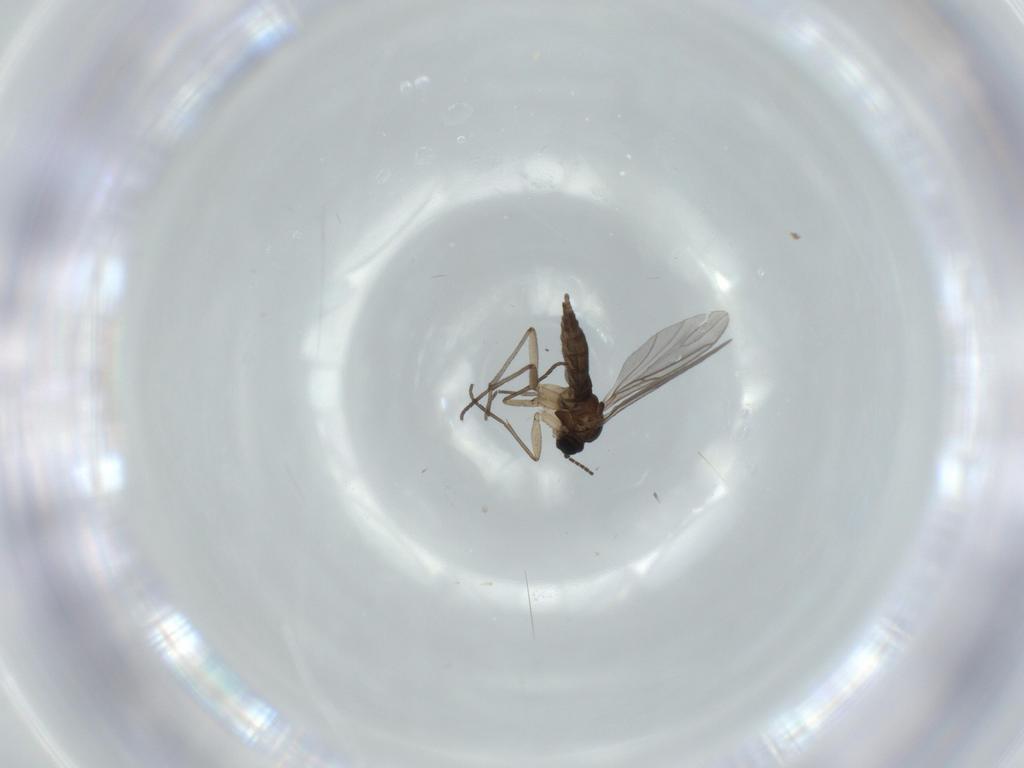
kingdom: Animalia
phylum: Arthropoda
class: Insecta
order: Diptera
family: Sciaridae
